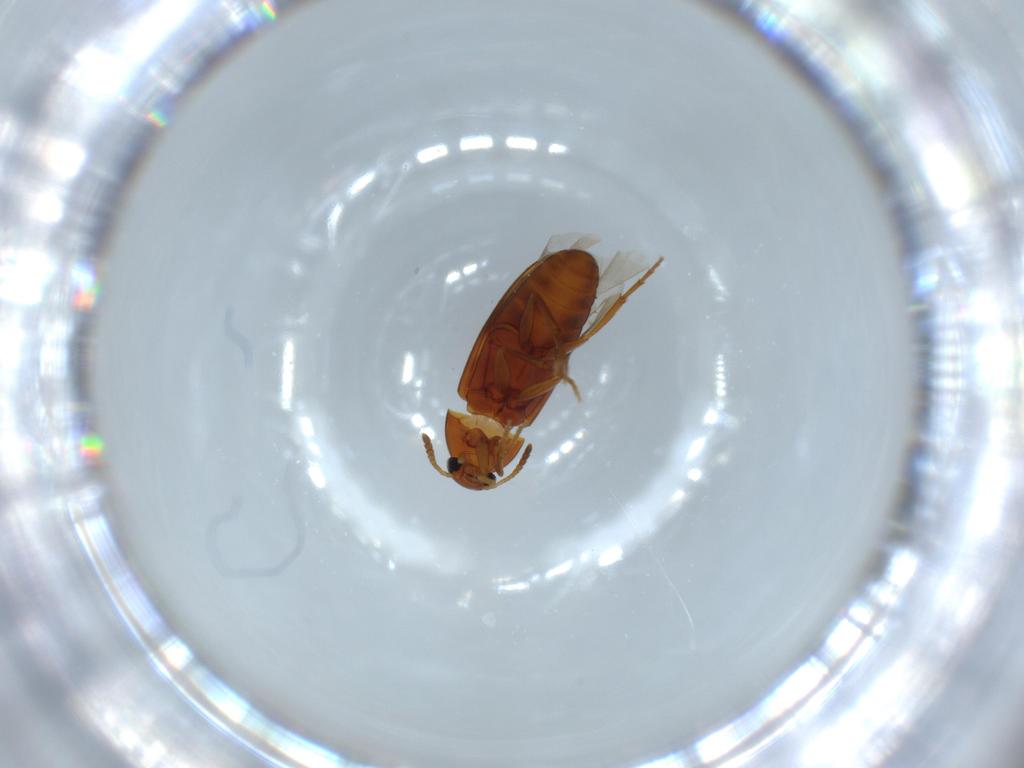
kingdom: Animalia
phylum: Arthropoda
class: Insecta
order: Coleoptera
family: Scraptiidae
